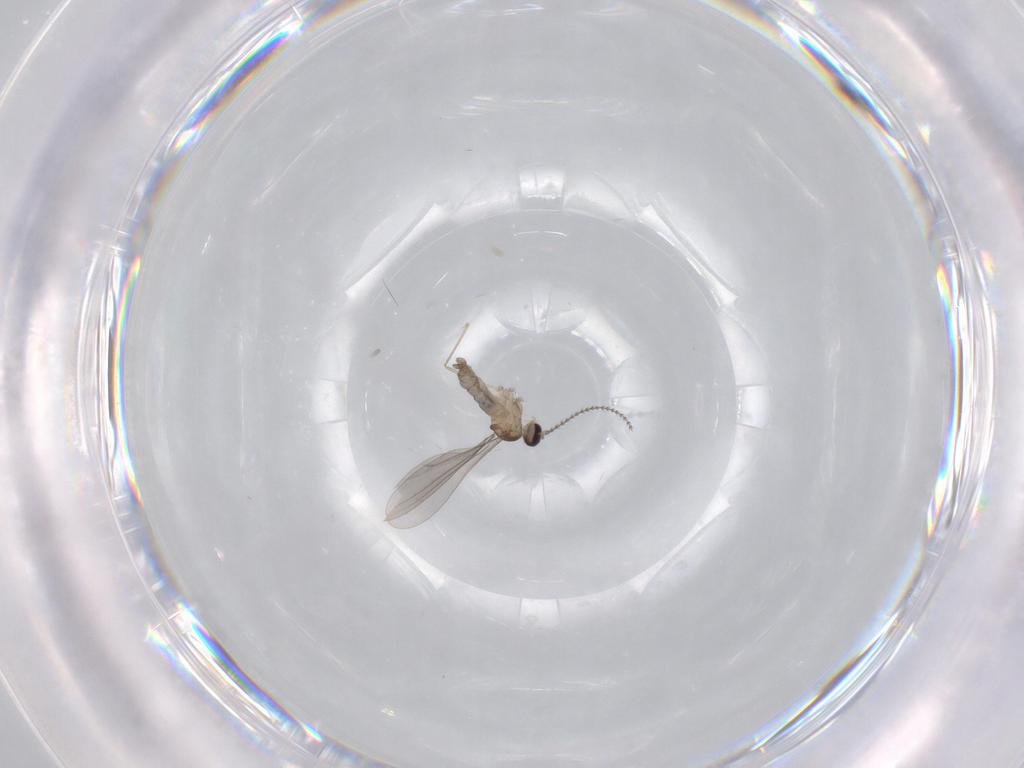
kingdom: Animalia
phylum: Arthropoda
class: Insecta
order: Diptera
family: Cecidomyiidae
